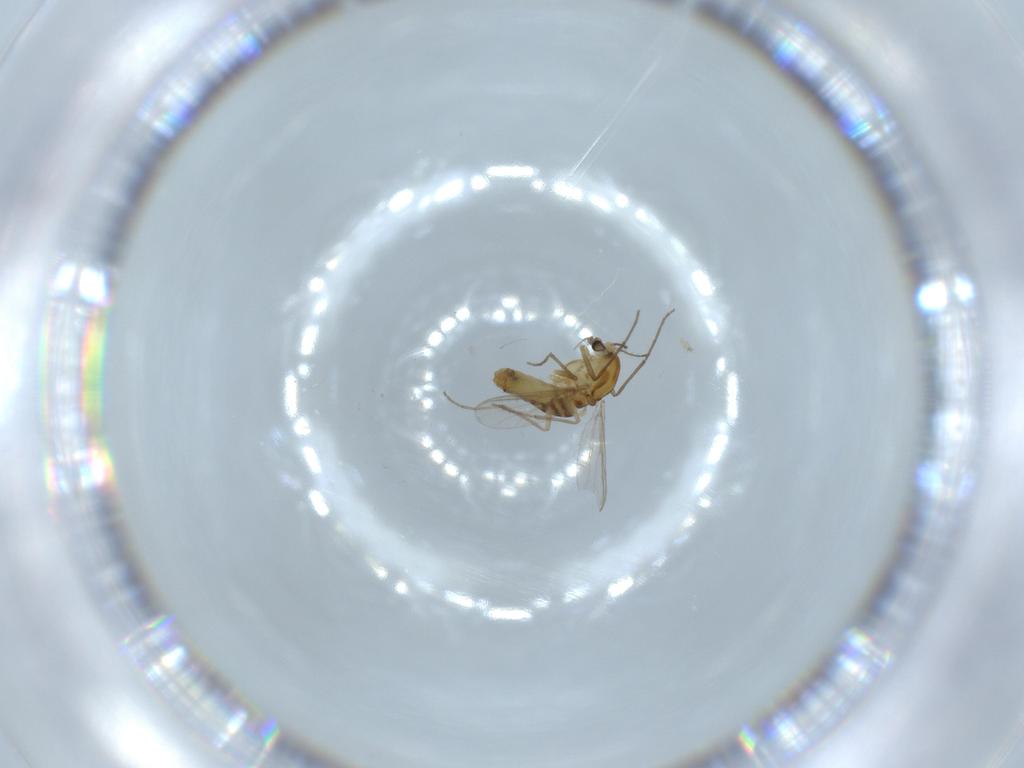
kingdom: Animalia
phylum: Arthropoda
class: Insecta
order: Diptera
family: Chironomidae
